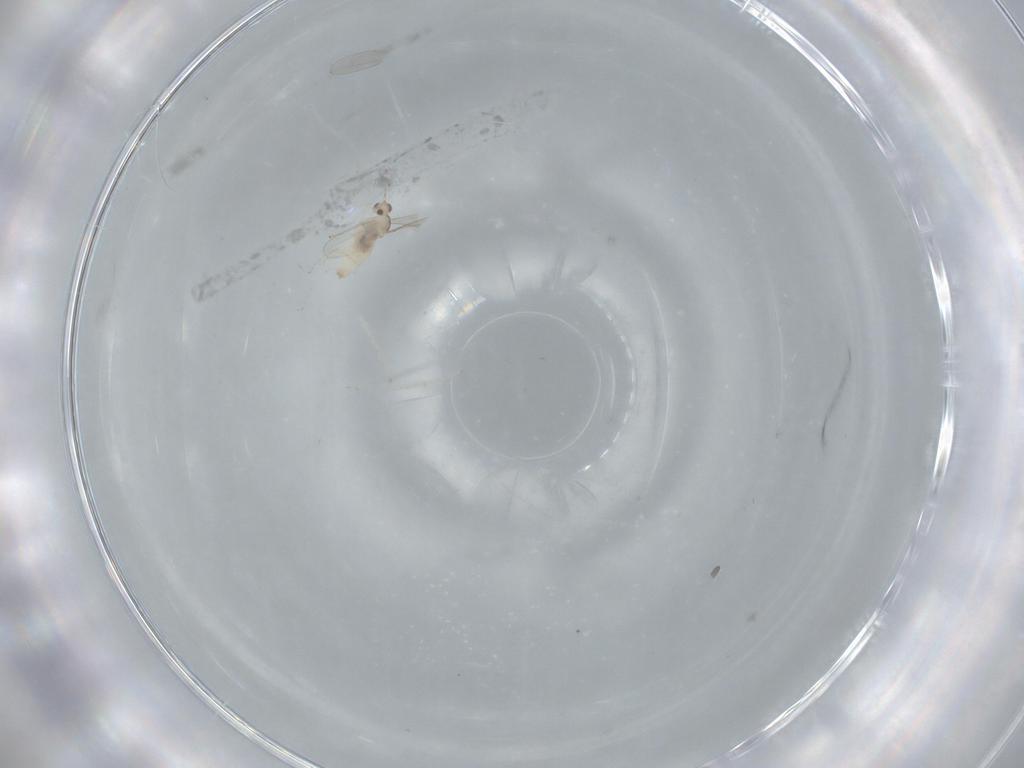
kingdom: Animalia
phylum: Arthropoda
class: Insecta
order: Diptera
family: Cecidomyiidae
